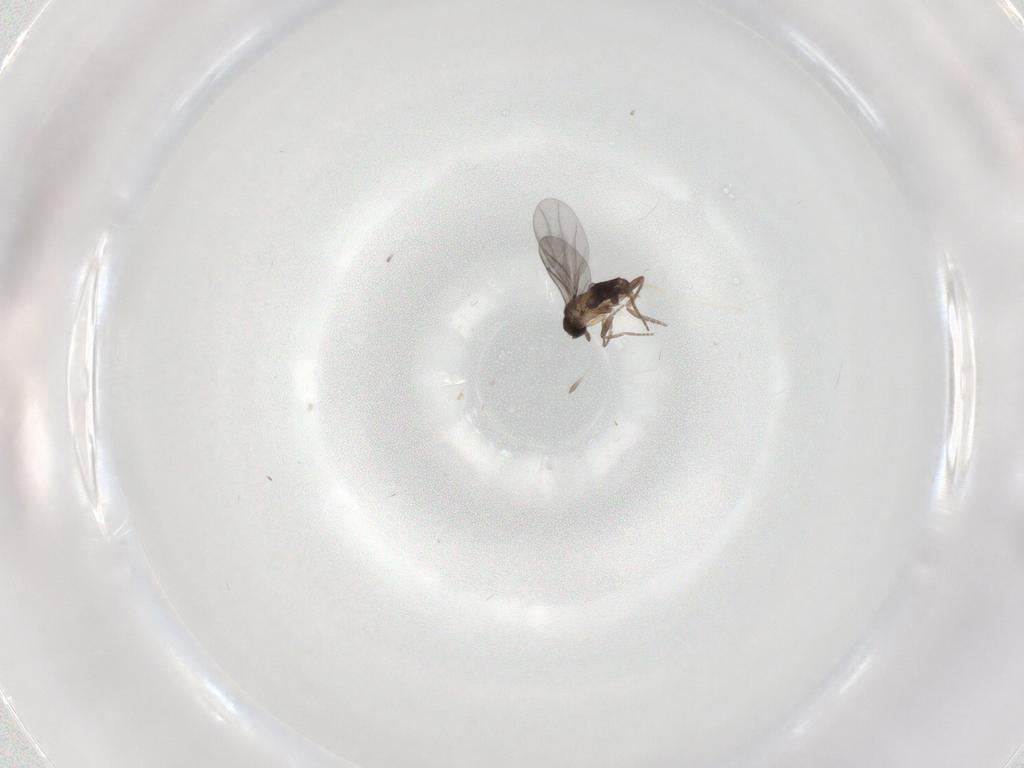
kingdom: Animalia
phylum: Arthropoda
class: Insecta
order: Diptera
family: Phoridae
